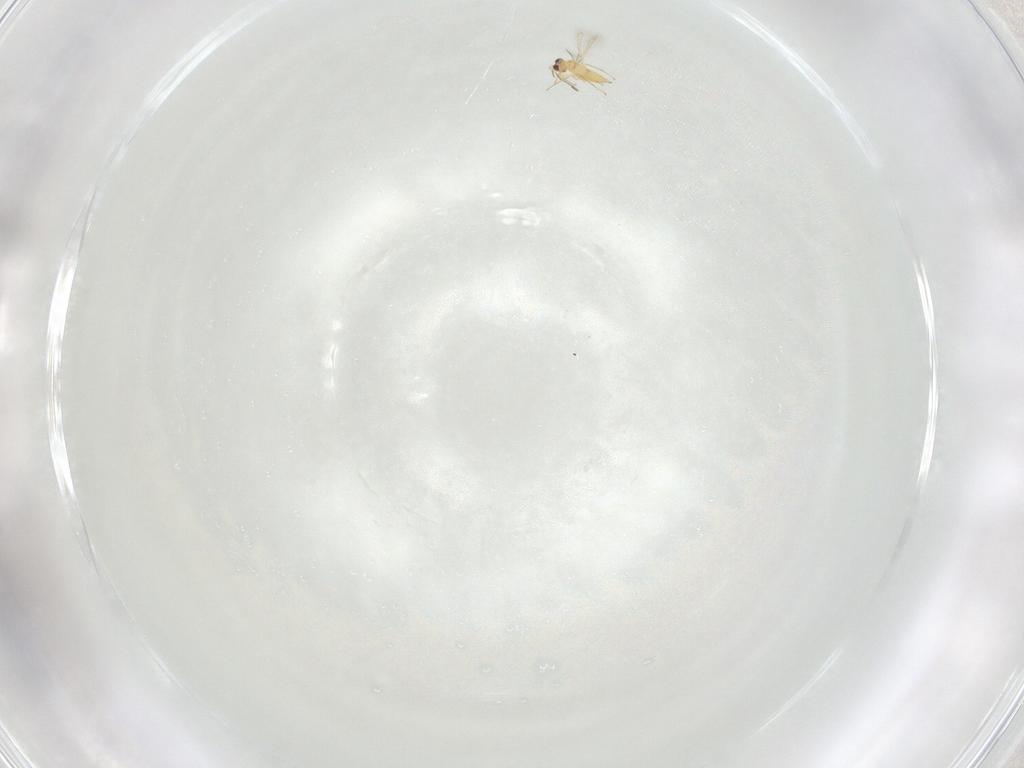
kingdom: Animalia
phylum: Arthropoda
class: Insecta
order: Hymenoptera
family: Mymaridae
